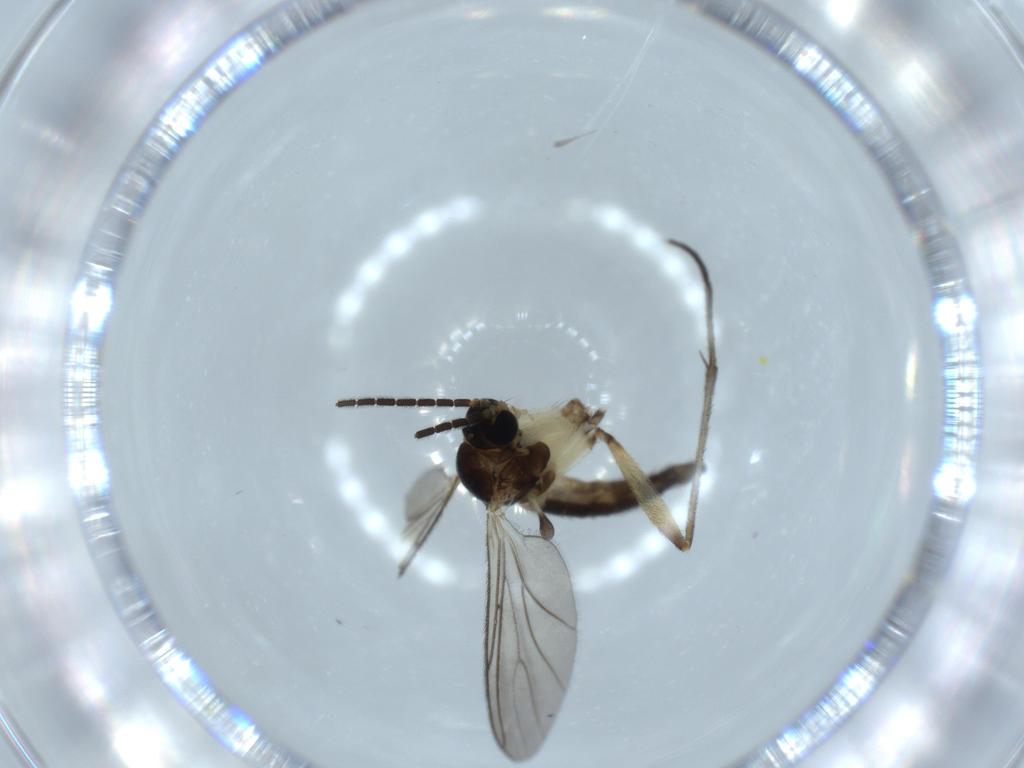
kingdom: Animalia
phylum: Arthropoda
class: Insecta
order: Diptera
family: Sciaridae
